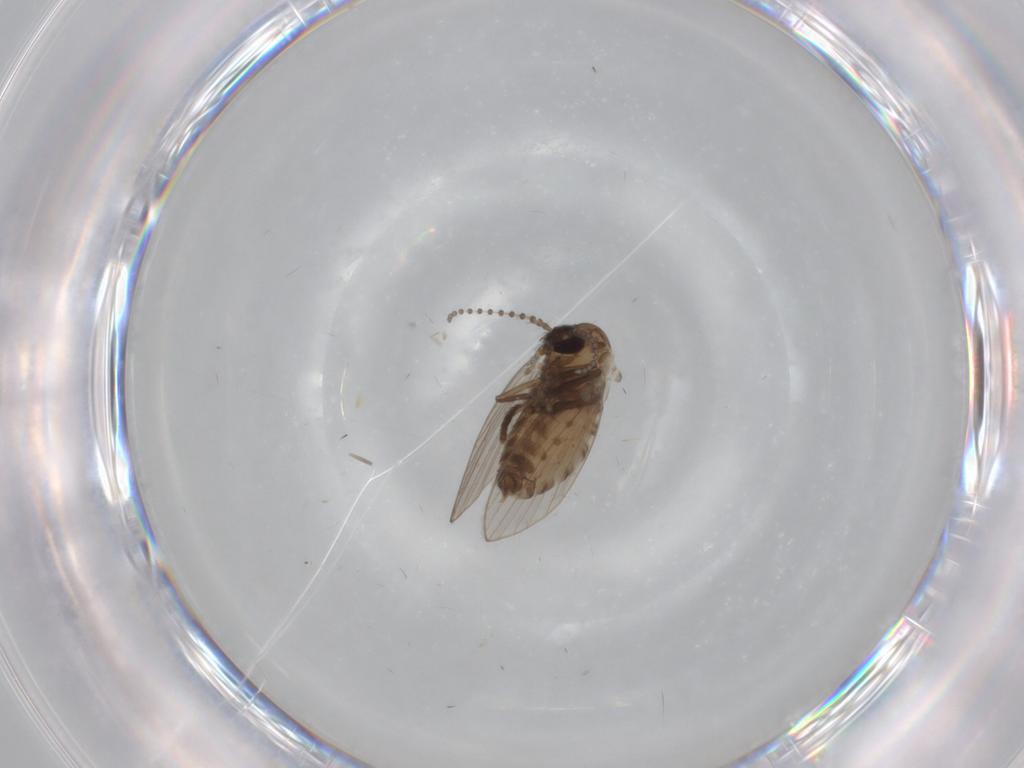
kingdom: Animalia
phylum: Arthropoda
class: Insecta
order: Diptera
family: Psychodidae
